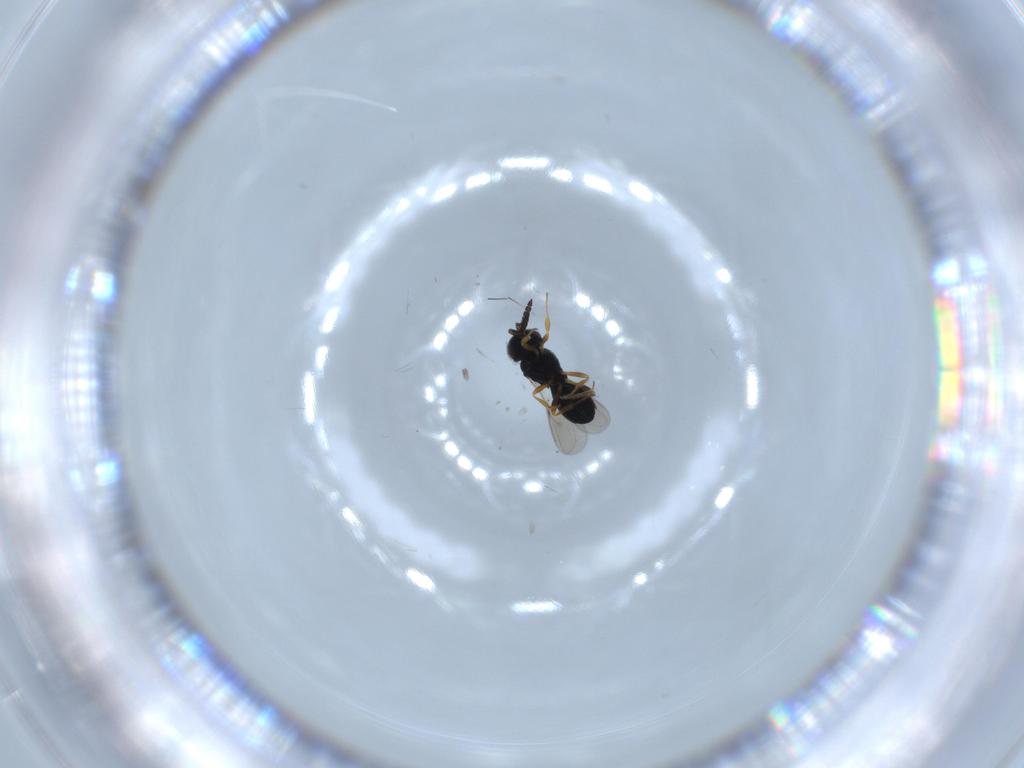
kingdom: Animalia
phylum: Arthropoda
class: Insecta
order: Hymenoptera
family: Scelionidae
